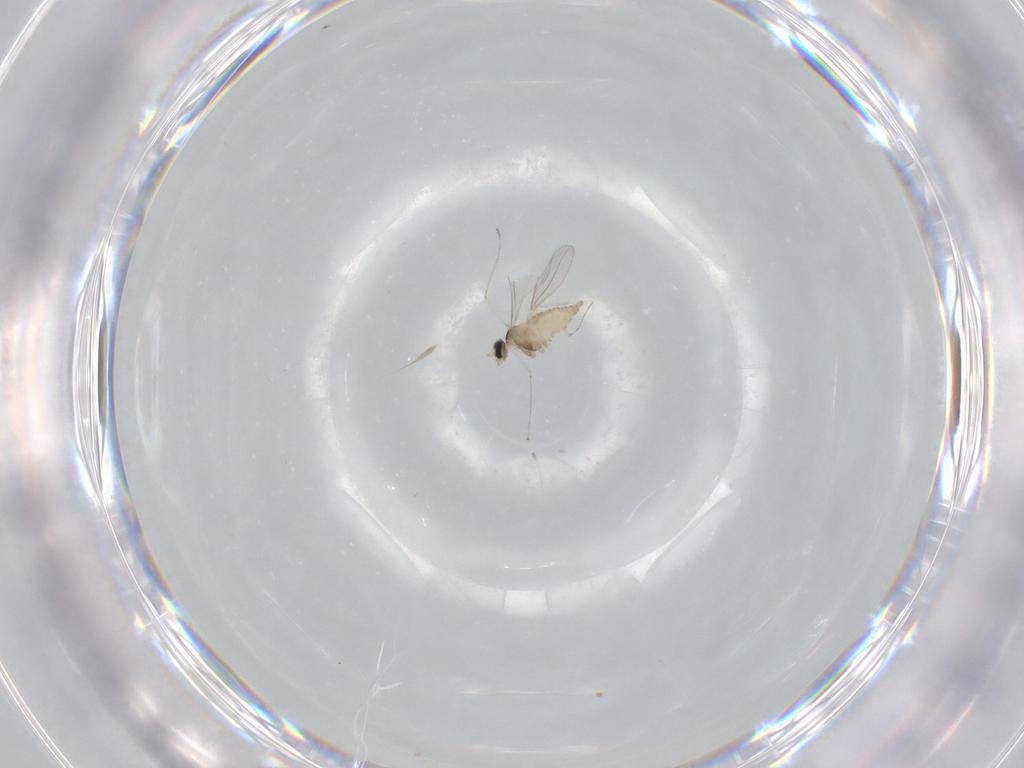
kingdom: Animalia
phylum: Arthropoda
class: Insecta
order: Diptera
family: Cecidomyiidae
